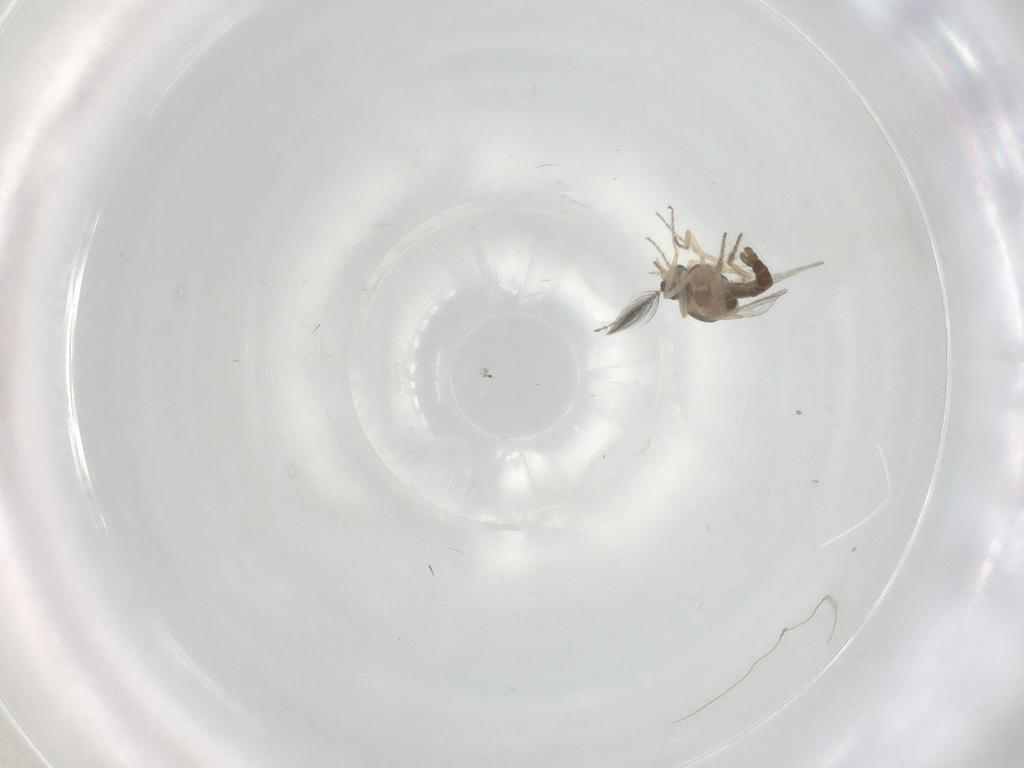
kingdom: Animalia
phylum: Arthropoda
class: Insecta
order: Diptera
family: Ceratopogonidae
